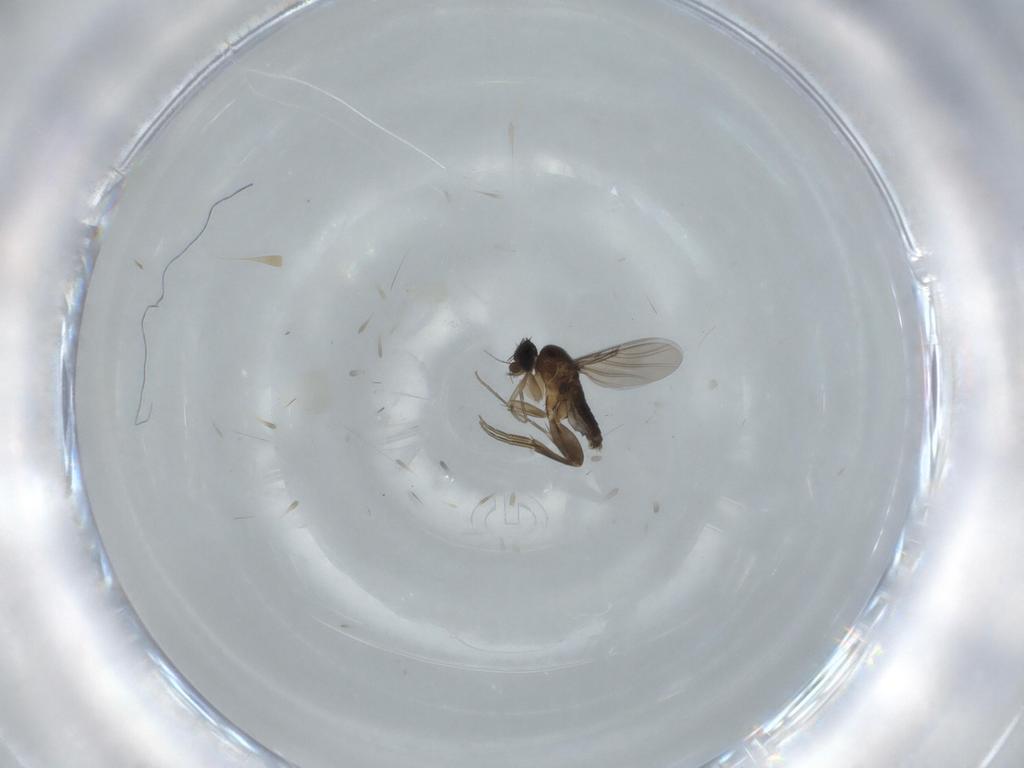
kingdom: Animalia
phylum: Arthropoda
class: Insecta
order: Diptera
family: Phoridae
